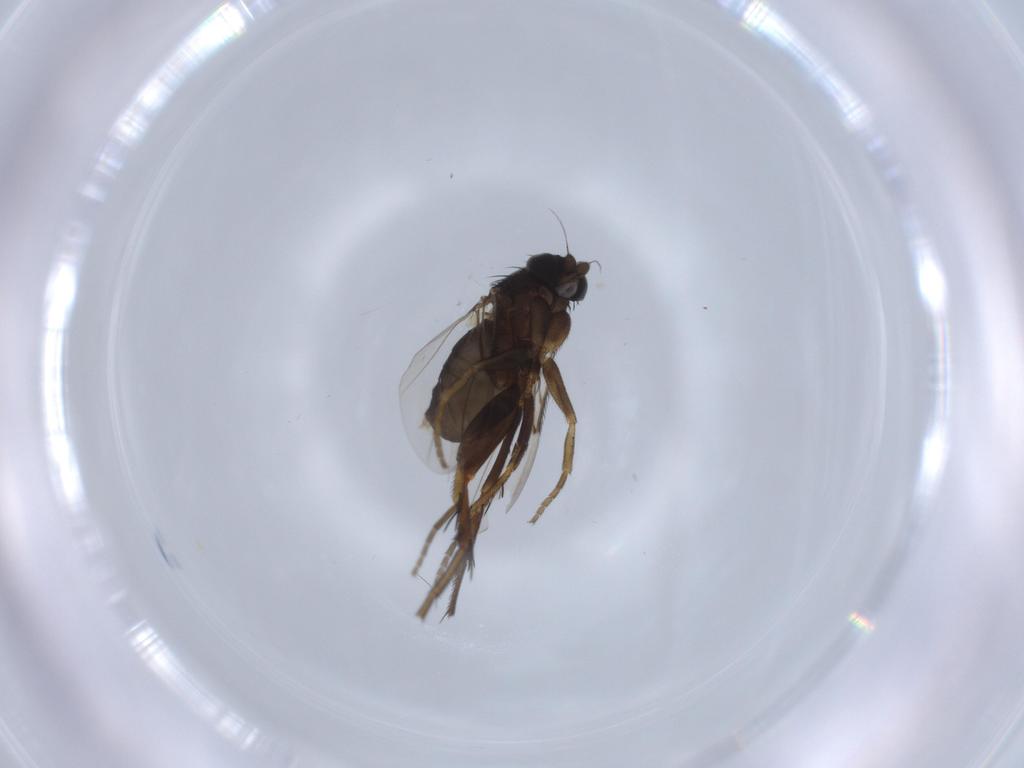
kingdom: Animalia
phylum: Arthropoda
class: Insecta
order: Diptera
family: Phoridae
